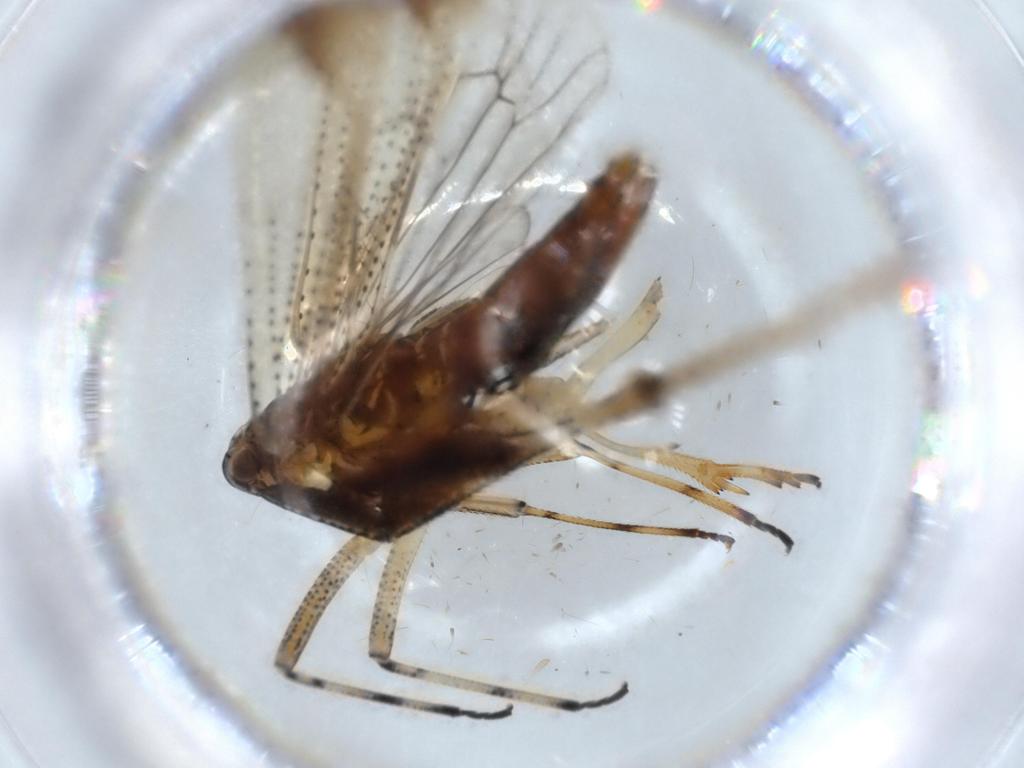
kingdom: Animalia
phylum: Arthropoda
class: Insecta
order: Hemiptera
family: Delphacidae
